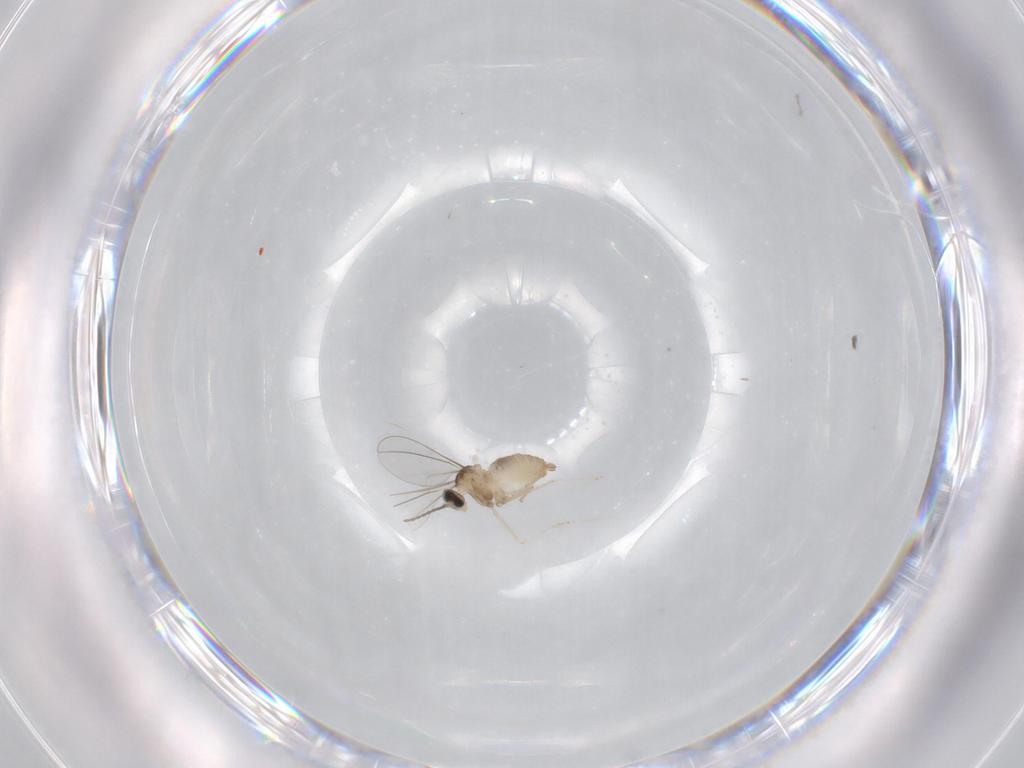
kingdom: Animalia
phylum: Arthropoda
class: Insecta
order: Diptera
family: Cecidomyiidae
